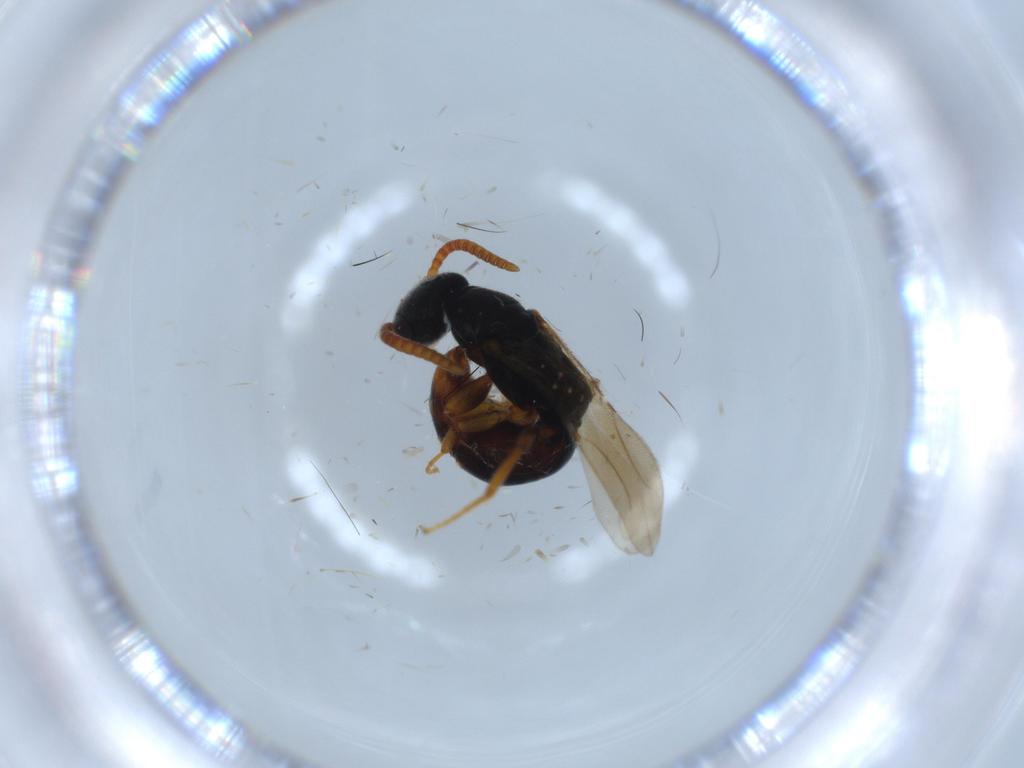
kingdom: Animalia
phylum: Arthropoda
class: Insecta
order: Hymenoptera
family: Bethylidae
